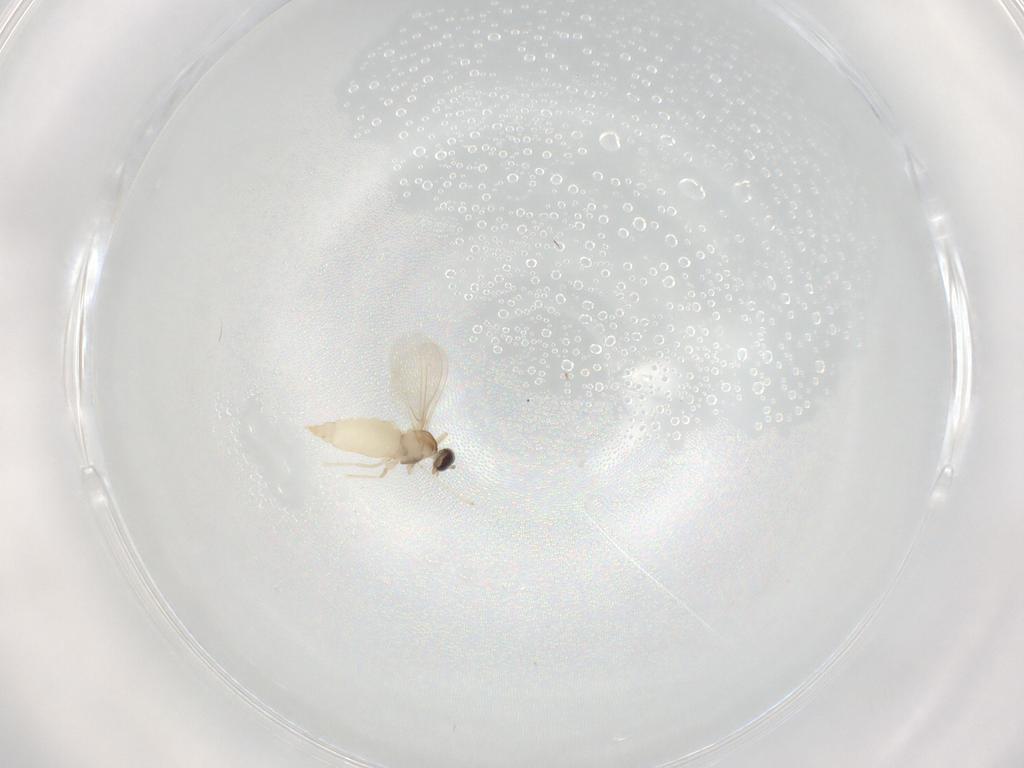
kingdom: Animalia
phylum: Arthropoda
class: Insecta
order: Diptera
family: Cecidomyiidae
